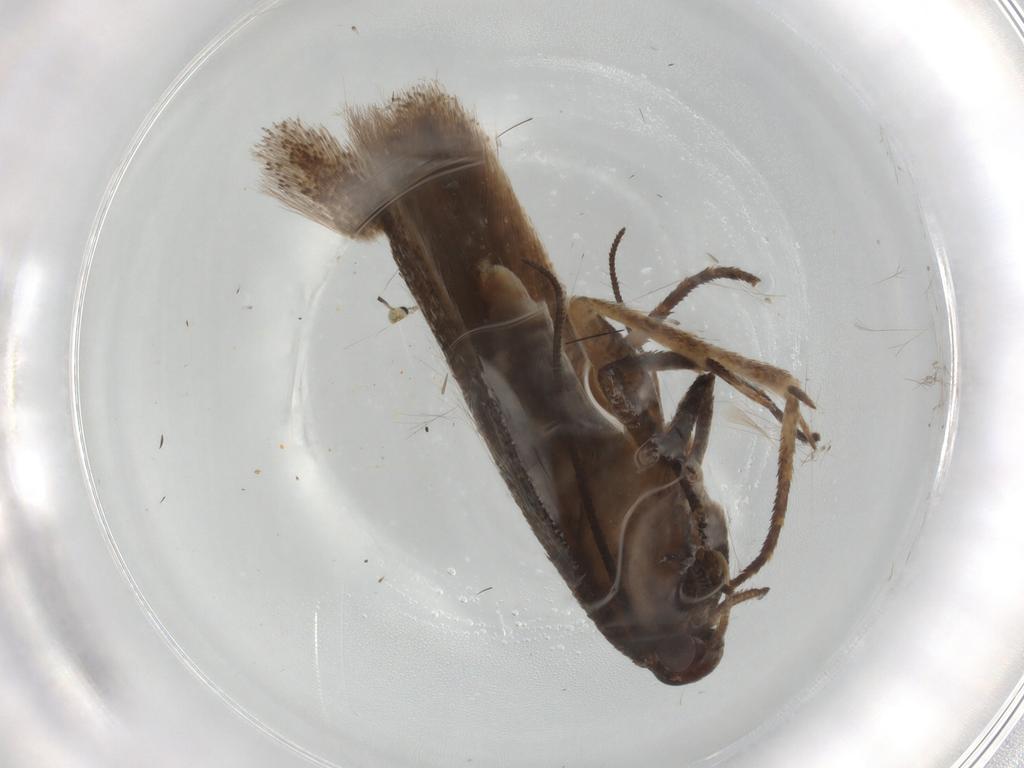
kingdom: Animalia
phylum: Arthropoda
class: Insecta
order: Lepidoptera
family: Gelechiidae
